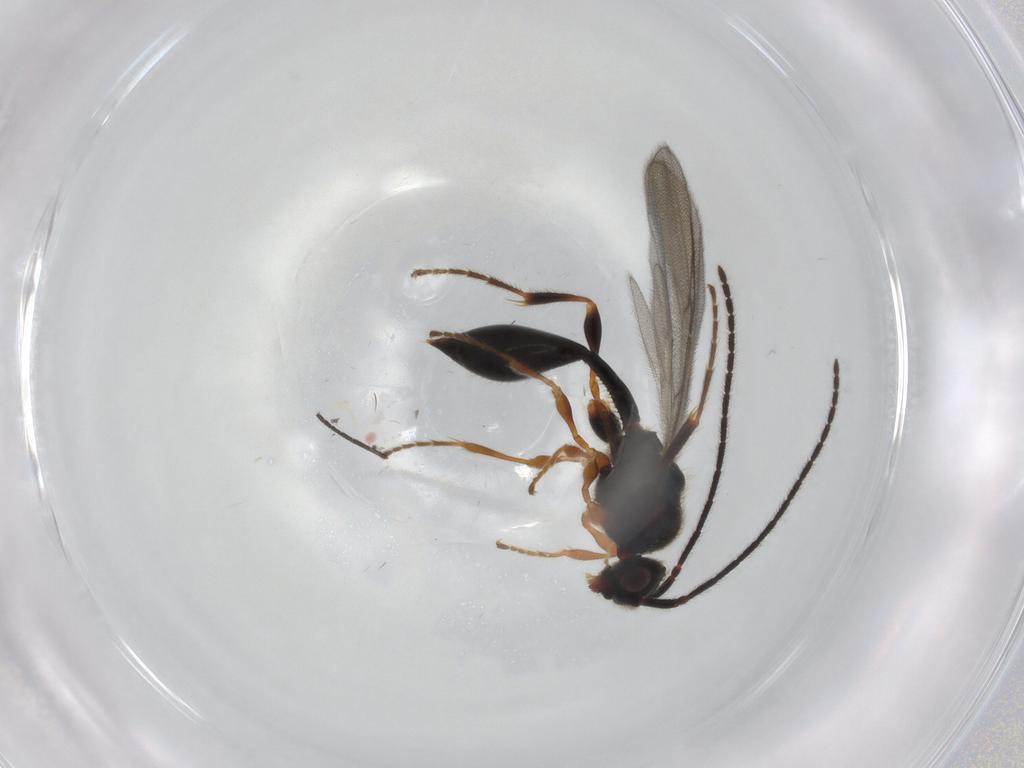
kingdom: Animalia
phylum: Arthropoda
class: Insecta
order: Hymenoptera
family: Diapriidae
